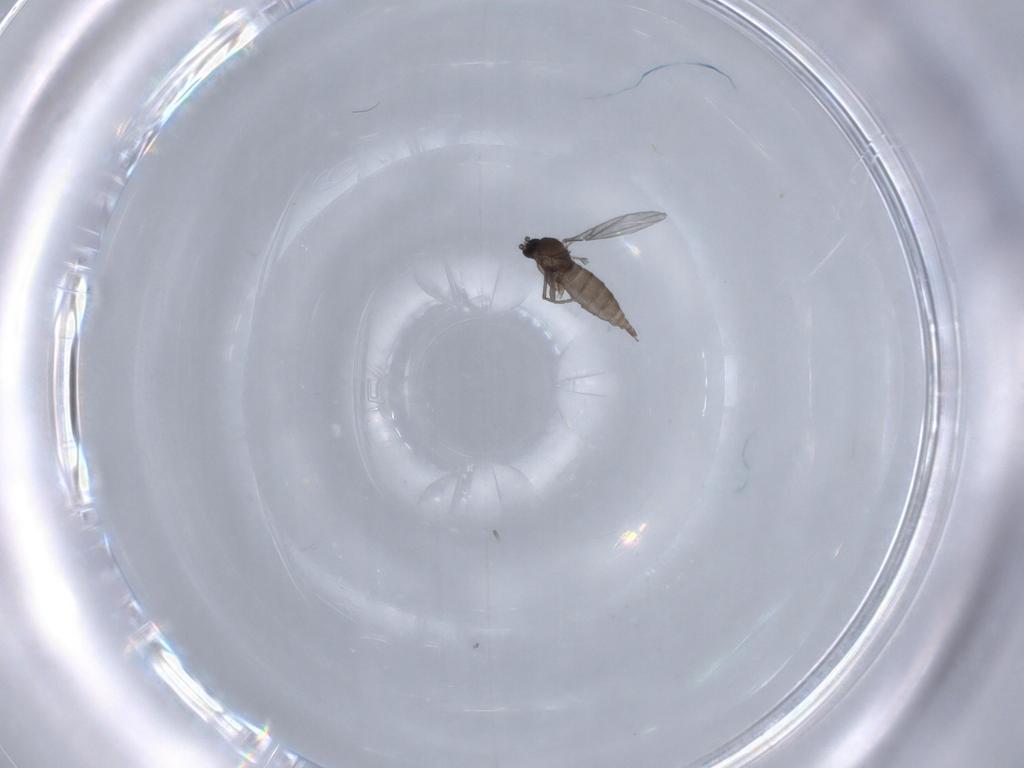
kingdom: Animalia
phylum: Arthropoda
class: Insecta
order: Diptera
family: Sciaridae
